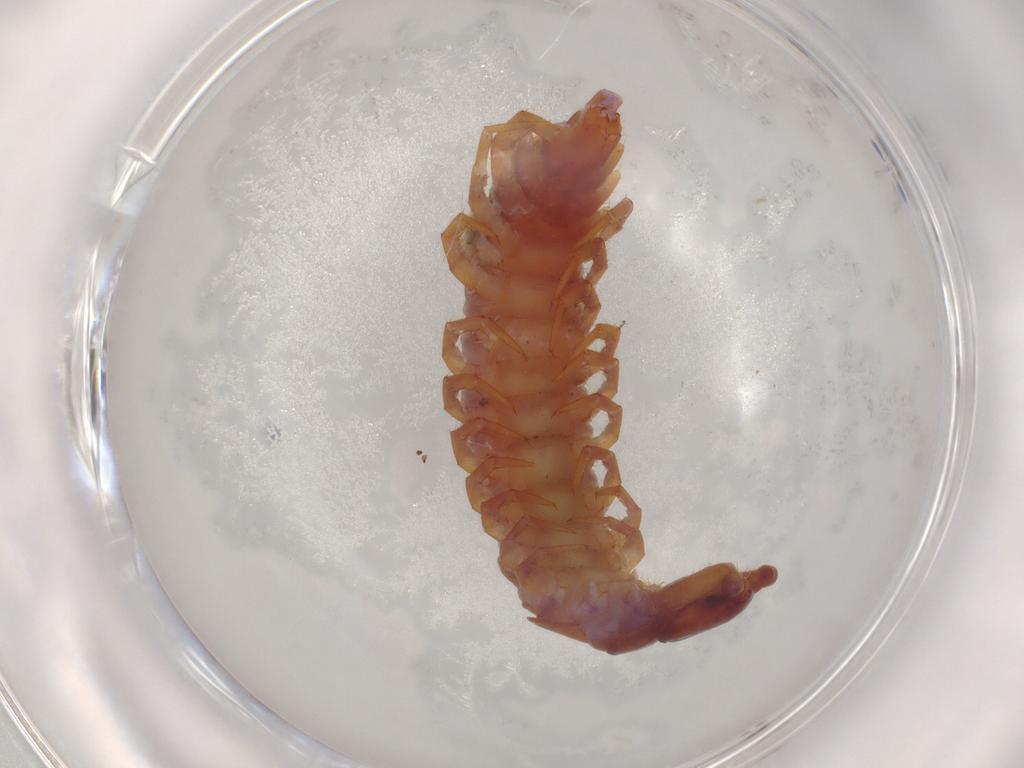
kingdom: Animalia
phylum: Arthropoda
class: Chilopoda
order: Lithobiomorpha
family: Lithobiidae
